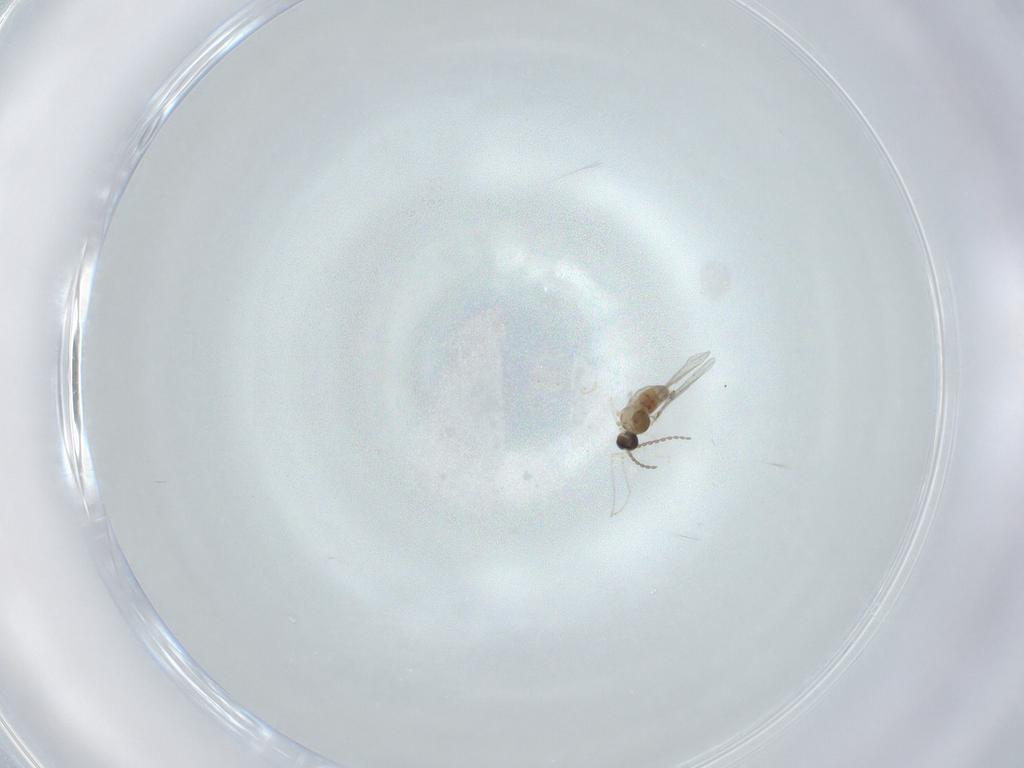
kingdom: Animalia
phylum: Arthropoda
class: Insecta
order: Diptera
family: Cecidomyiidae
